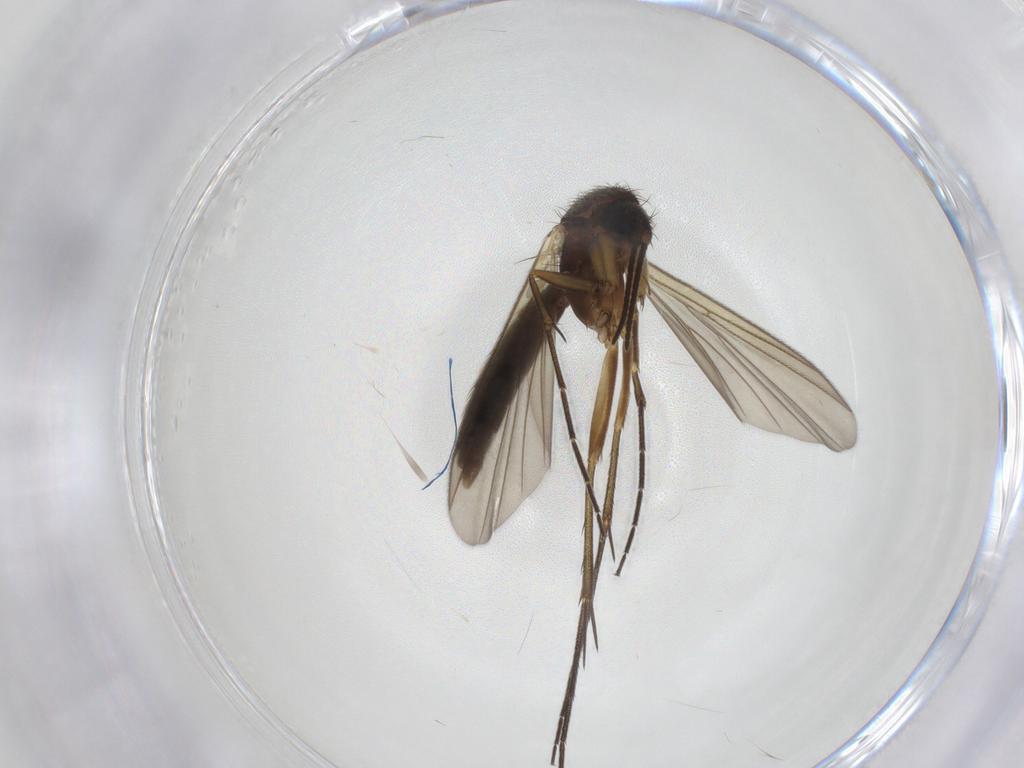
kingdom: Animalia
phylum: Arthropoda
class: Insecta
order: Diptera
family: Mycetophilidae
